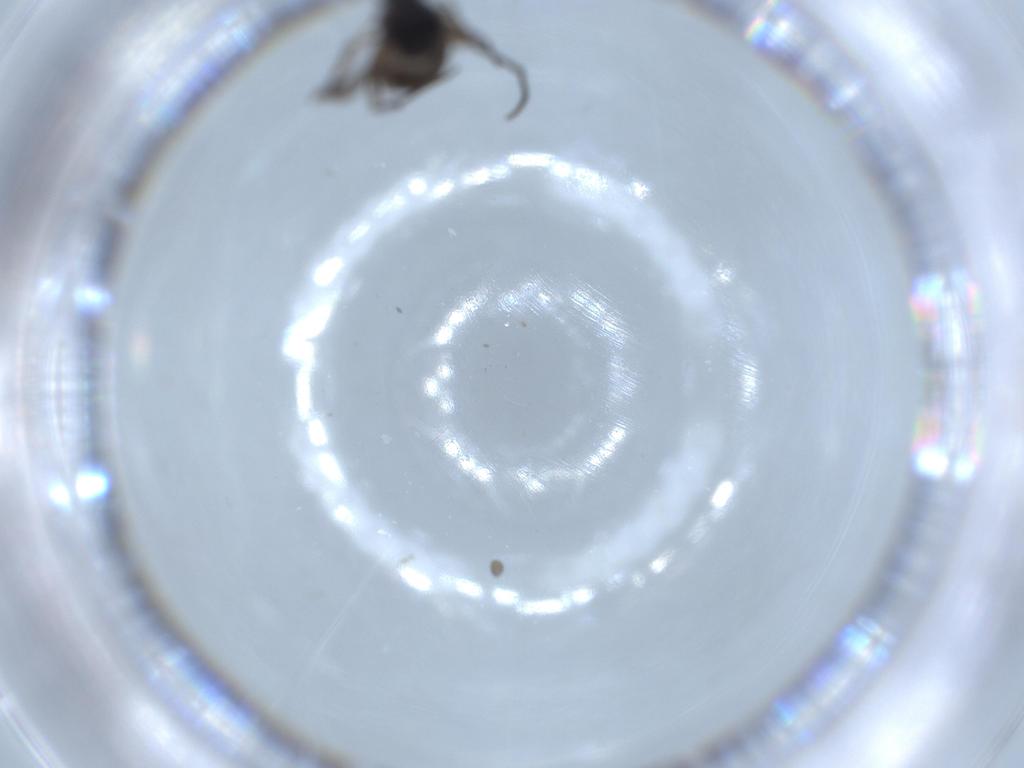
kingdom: Animalia
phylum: Arthropoda
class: Insecta
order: Diptera
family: Sciaridae
